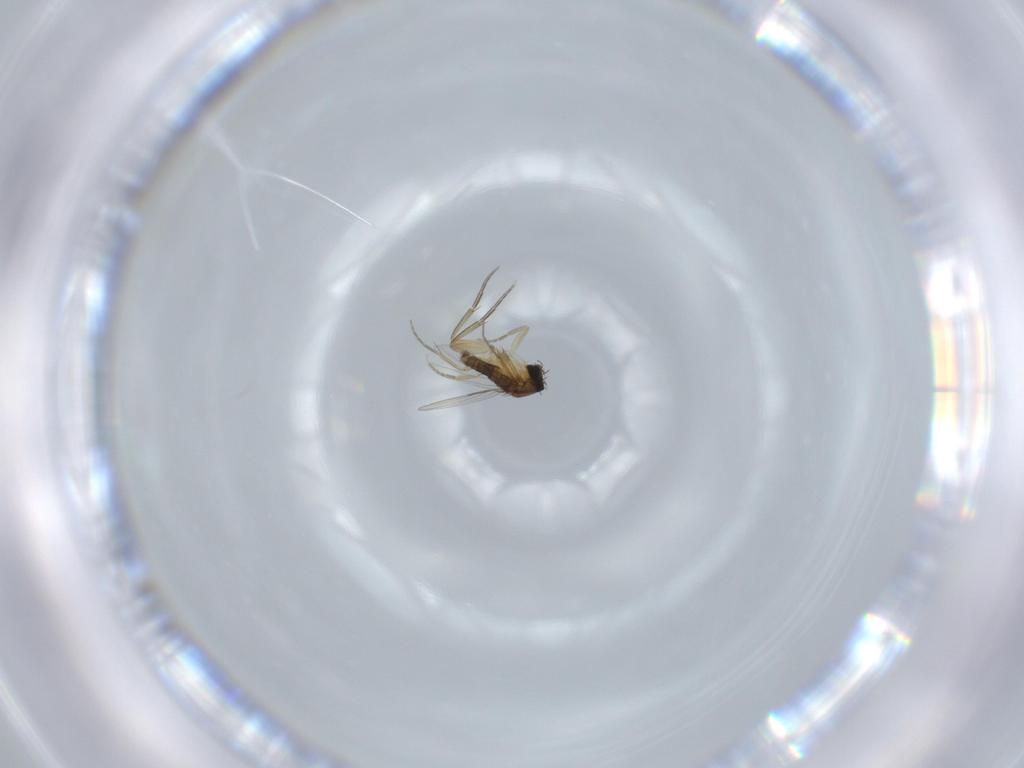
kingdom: Animalia
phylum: Arthropoda
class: Insecta
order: Diptera
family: Phoridae
